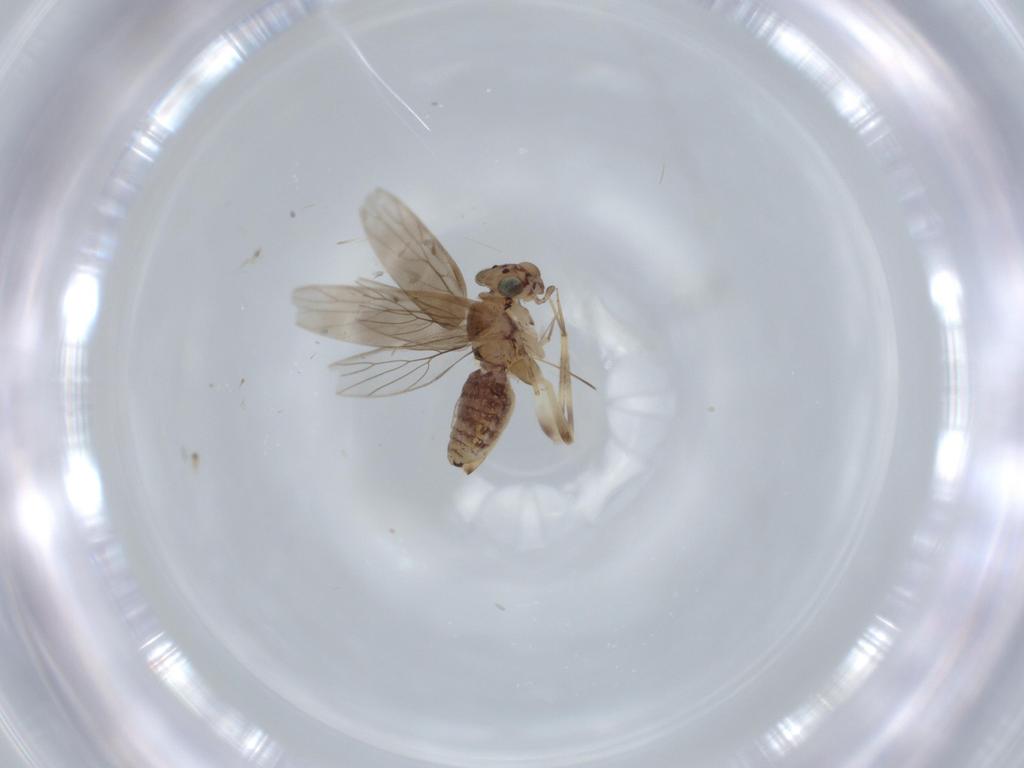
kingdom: Animalia
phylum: Arthropoda
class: Insecta
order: Psocodea
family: Lepidopsocidae
